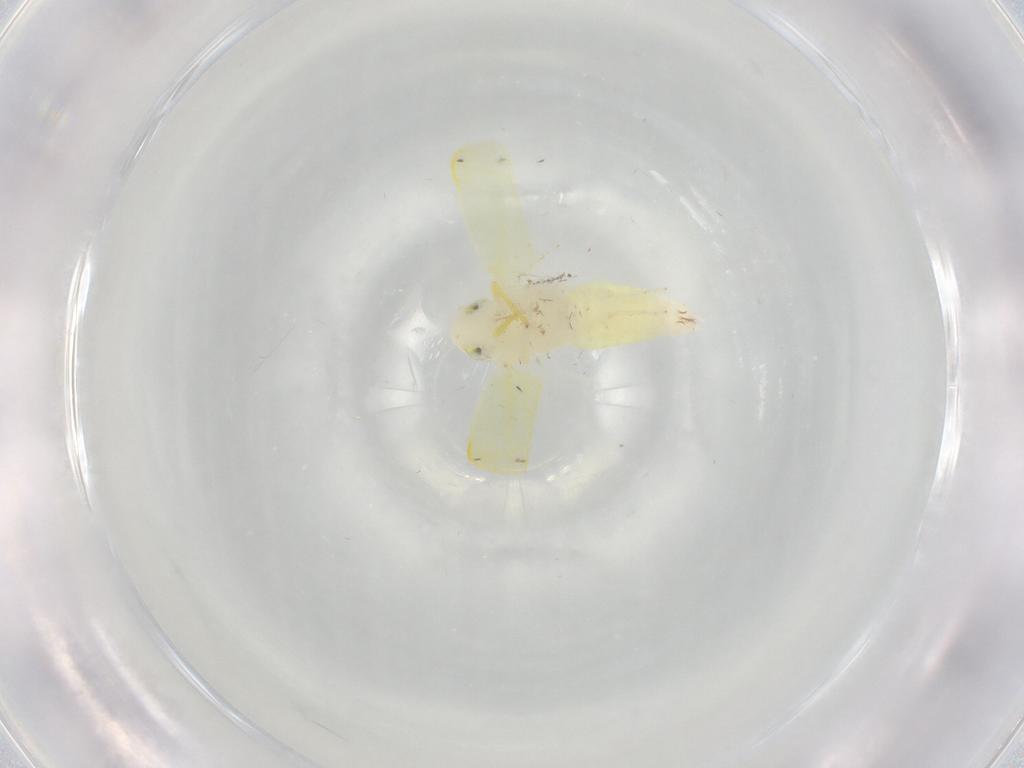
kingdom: Animalia
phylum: Arthropoda
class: Insecta
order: Hemiptera
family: Cicadellidae
